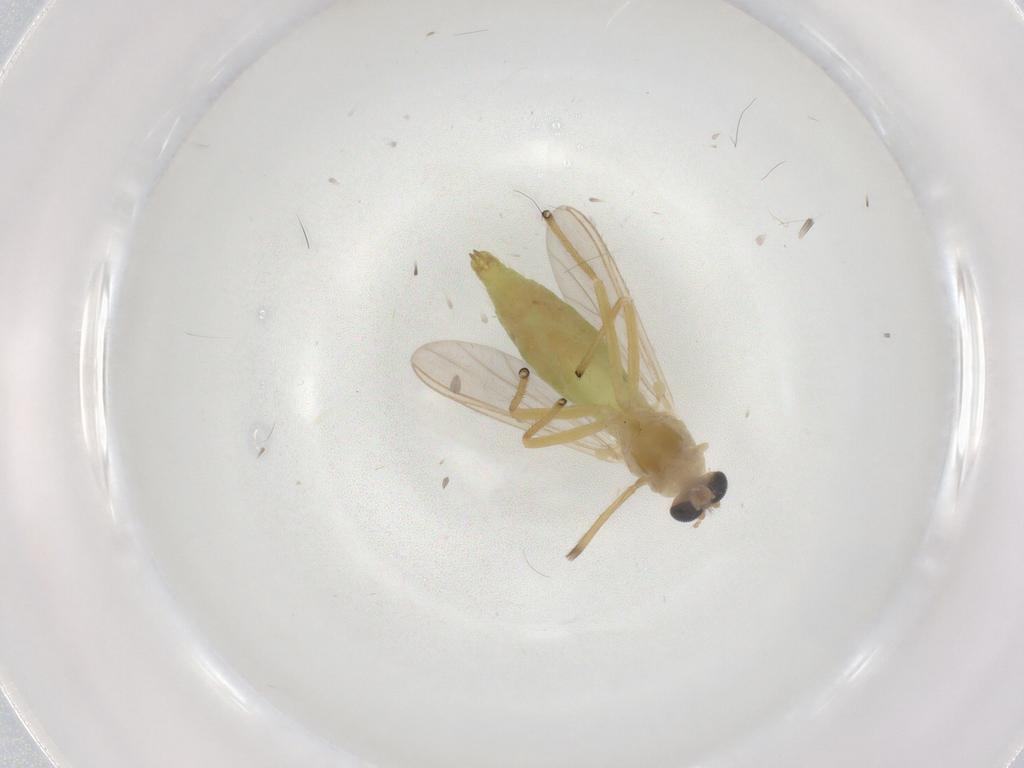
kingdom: Animalia
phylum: Arthropoda
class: Insecta
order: Diptera
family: Chironomidae
